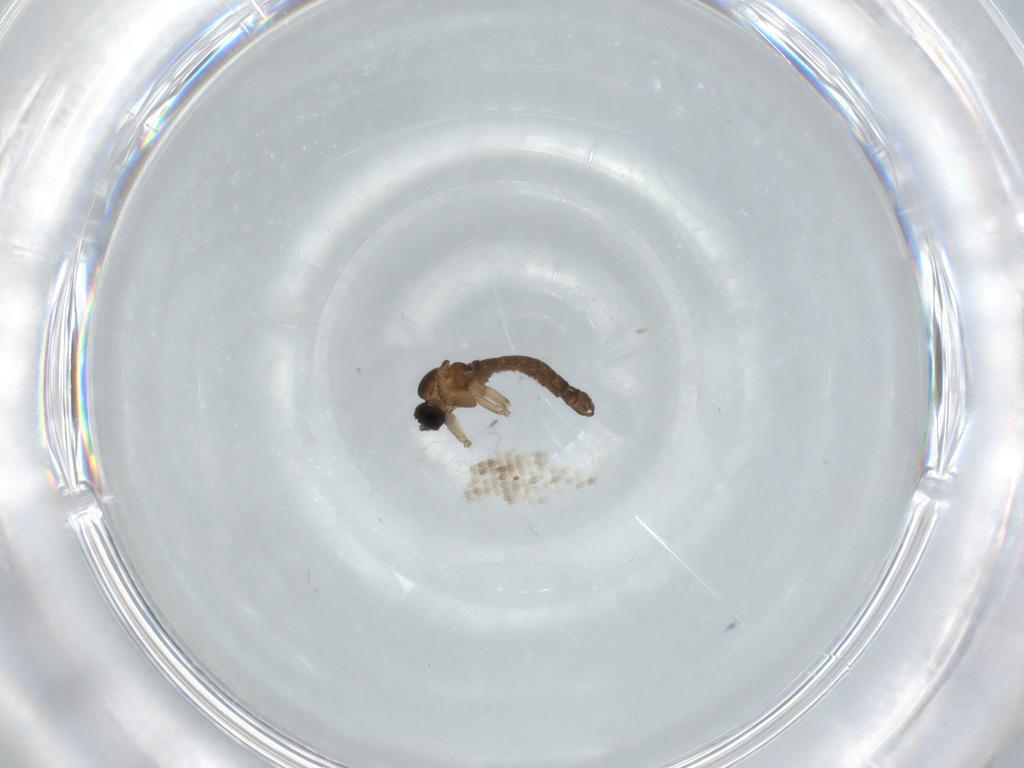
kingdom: Animalia
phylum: Arthropoda
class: Insecta
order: Diptera
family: Sciaridae
